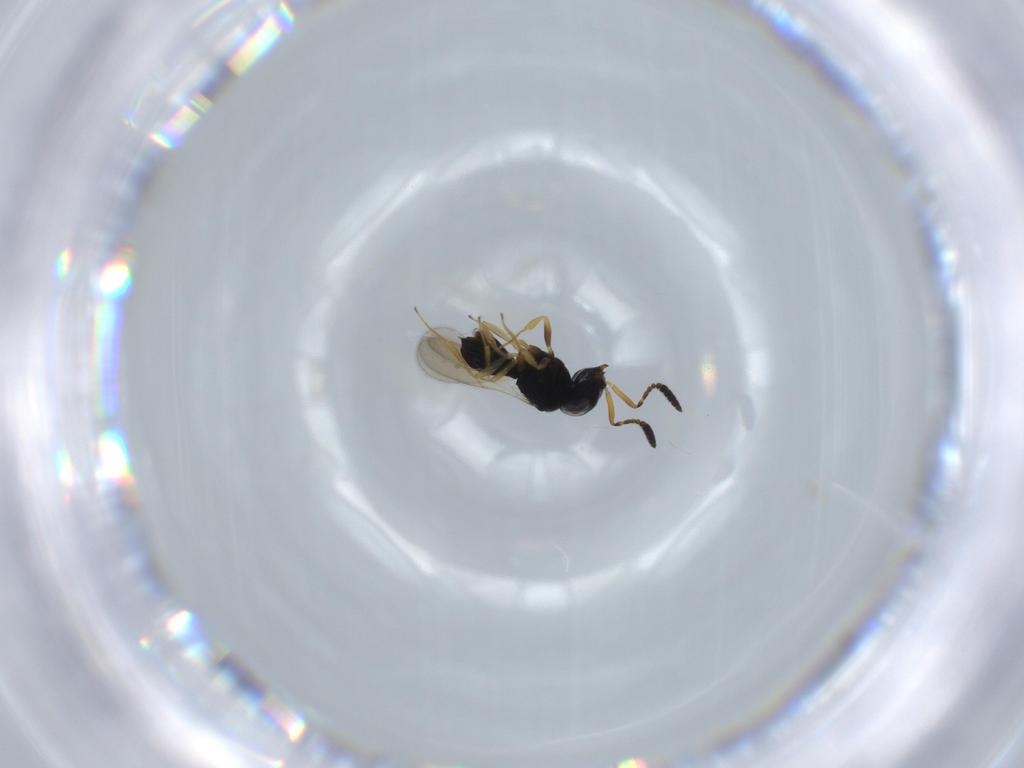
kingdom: Animalia
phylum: Arthropoda
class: Insecta
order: Hymenoptera
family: Scelionidae
